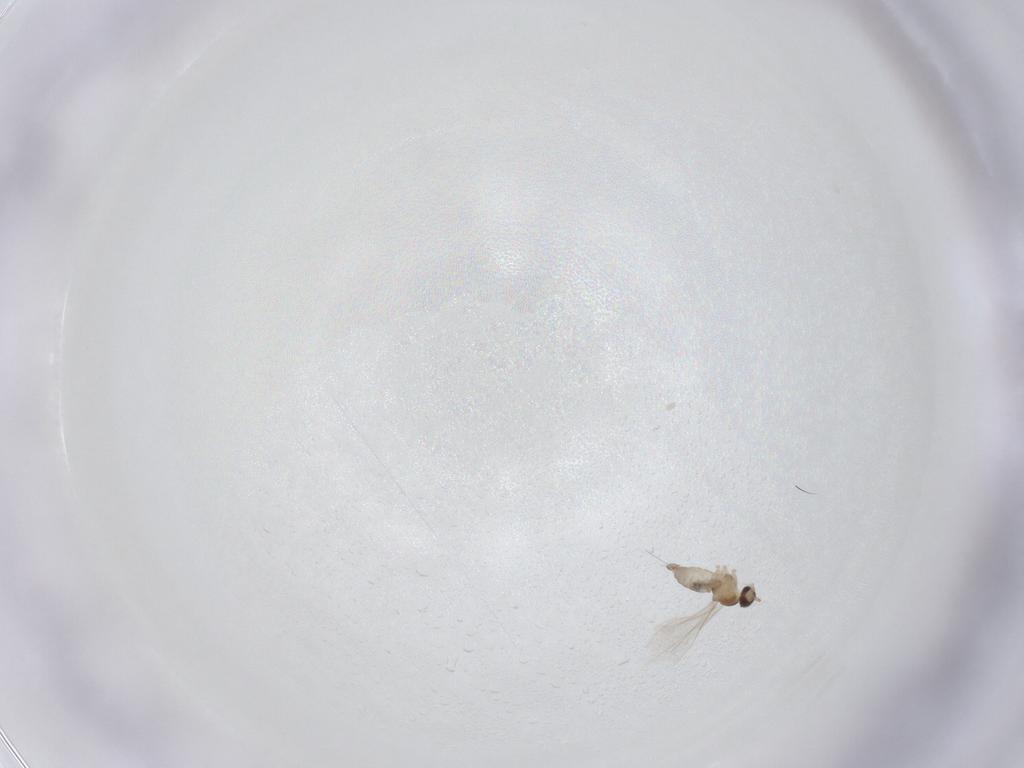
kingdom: Animalia
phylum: Arthropoda
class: Insecta
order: Diptera
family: Cecidomyiidae
